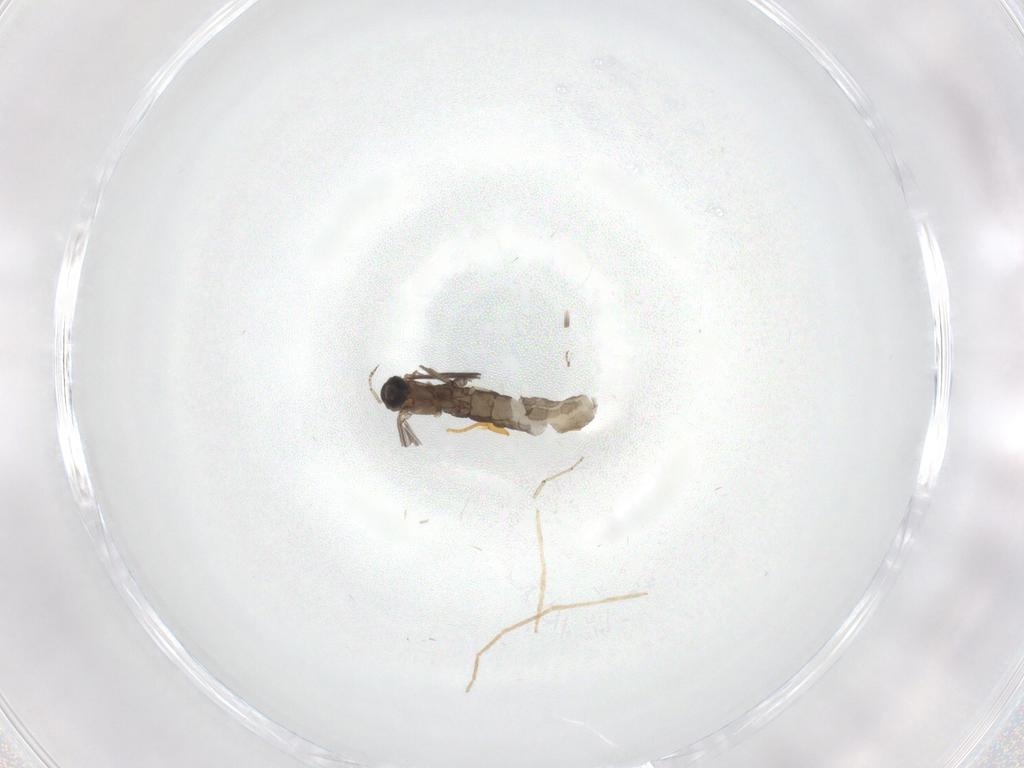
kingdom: Animalia
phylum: Arthropoda
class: Insecta
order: Diptera
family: Sciaridae
